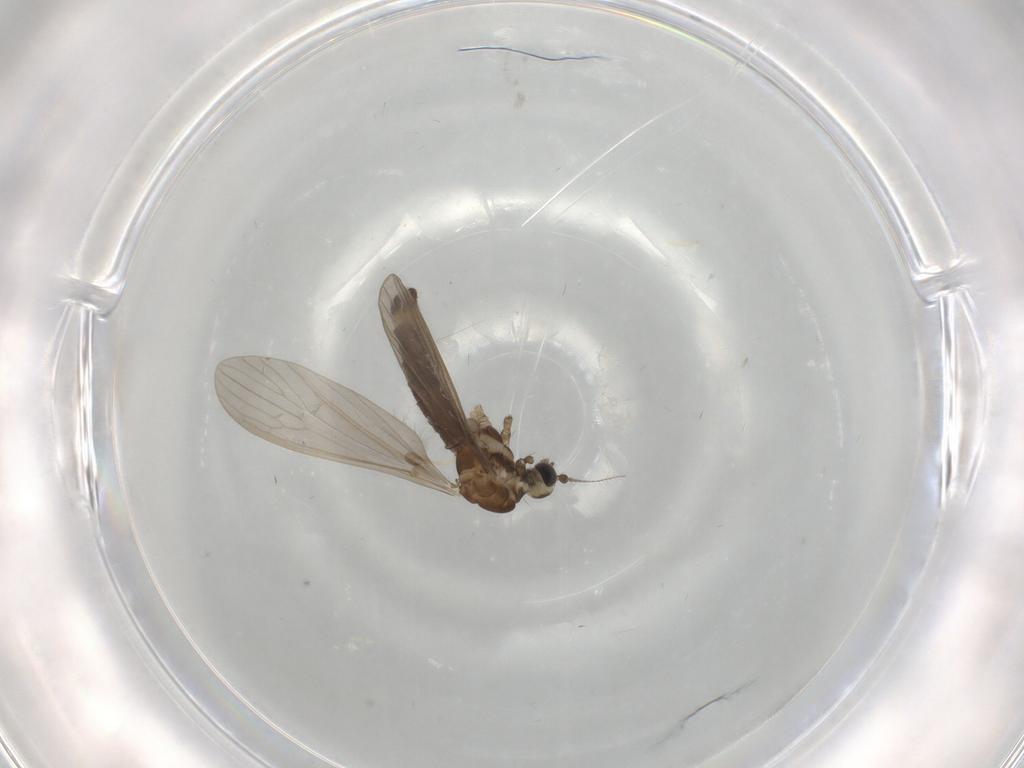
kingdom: Animalia
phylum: Arthropoda
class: Insecta
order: Diptera
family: Limoniidae
